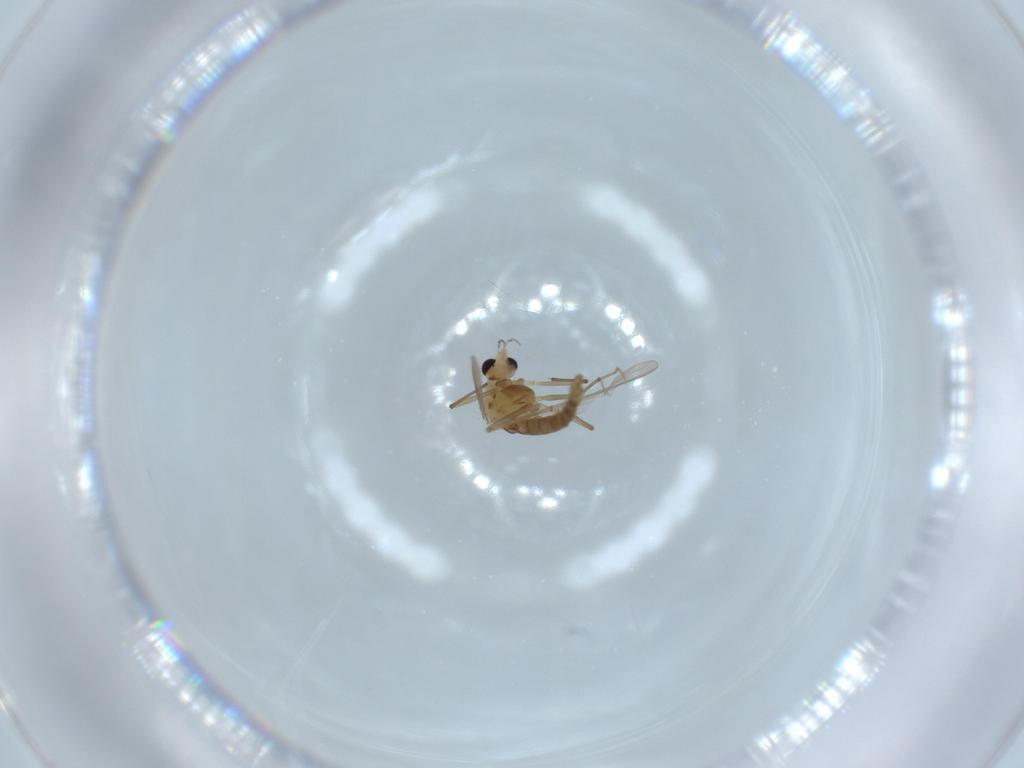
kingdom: Animalia
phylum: Arthropoda
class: Insecta
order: Diptera
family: Chironomidae
